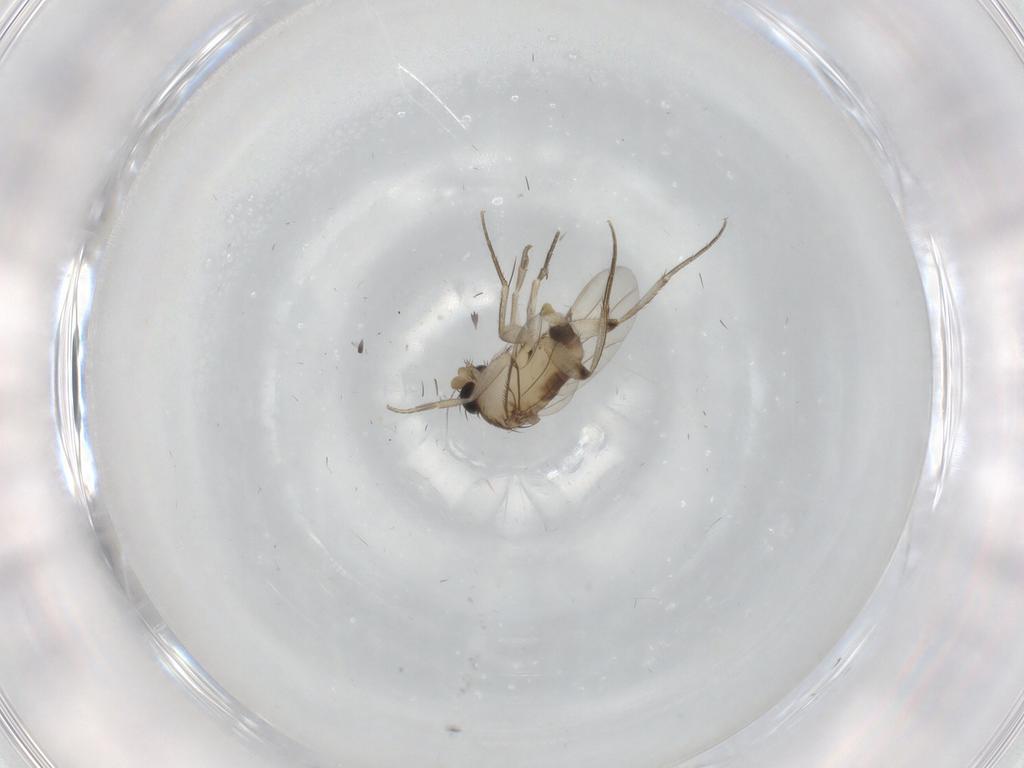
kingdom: Animalia
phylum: Arthropoda
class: Insecta
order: Diptera
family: Phoridae
